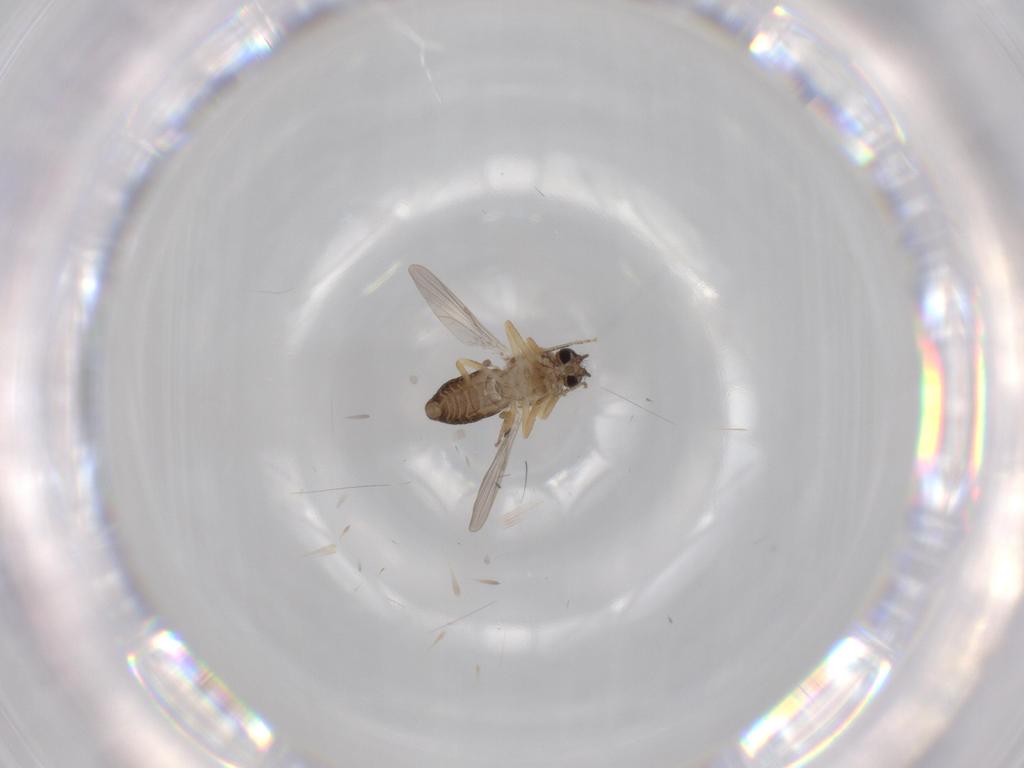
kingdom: Animalia
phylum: Arthropoda
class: Insecta
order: Diptera
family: Ceratopogonidae
